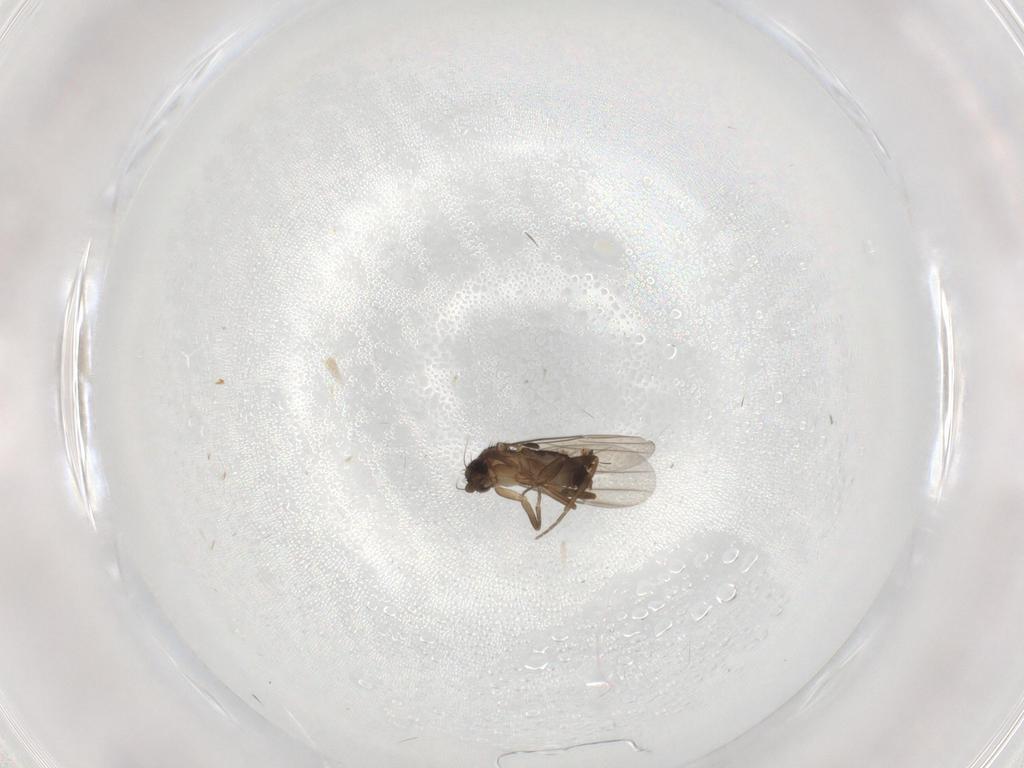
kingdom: Animalia
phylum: Arthropoda
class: Insecta
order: Diptera
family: Phoridae
